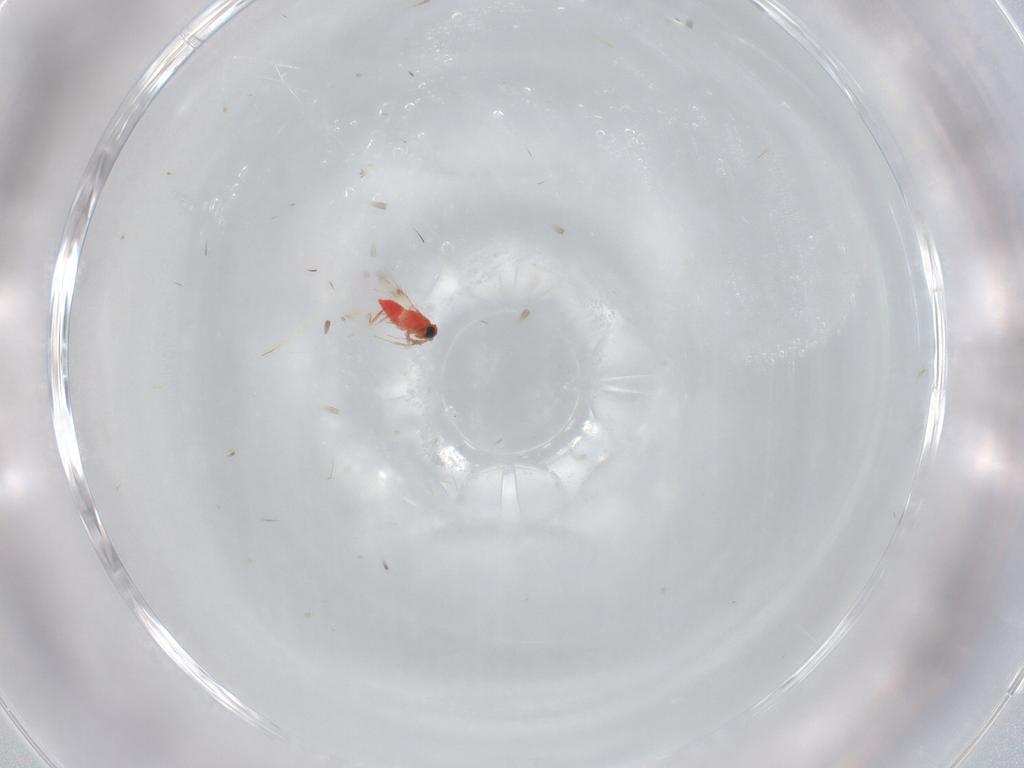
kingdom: Animalia
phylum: Arthropoda
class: Insecta
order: Hymenoptera
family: Trichogrammatidae
